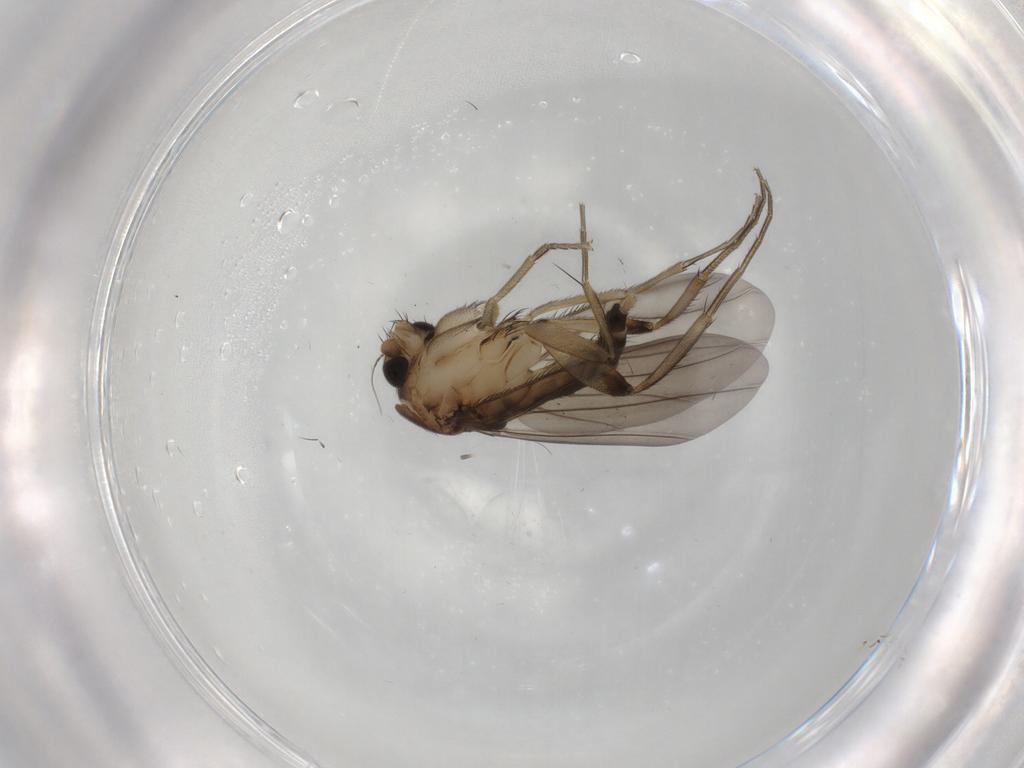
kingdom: Animalia
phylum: Arthropoda
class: Insecta
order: Diptera
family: Phoridae
